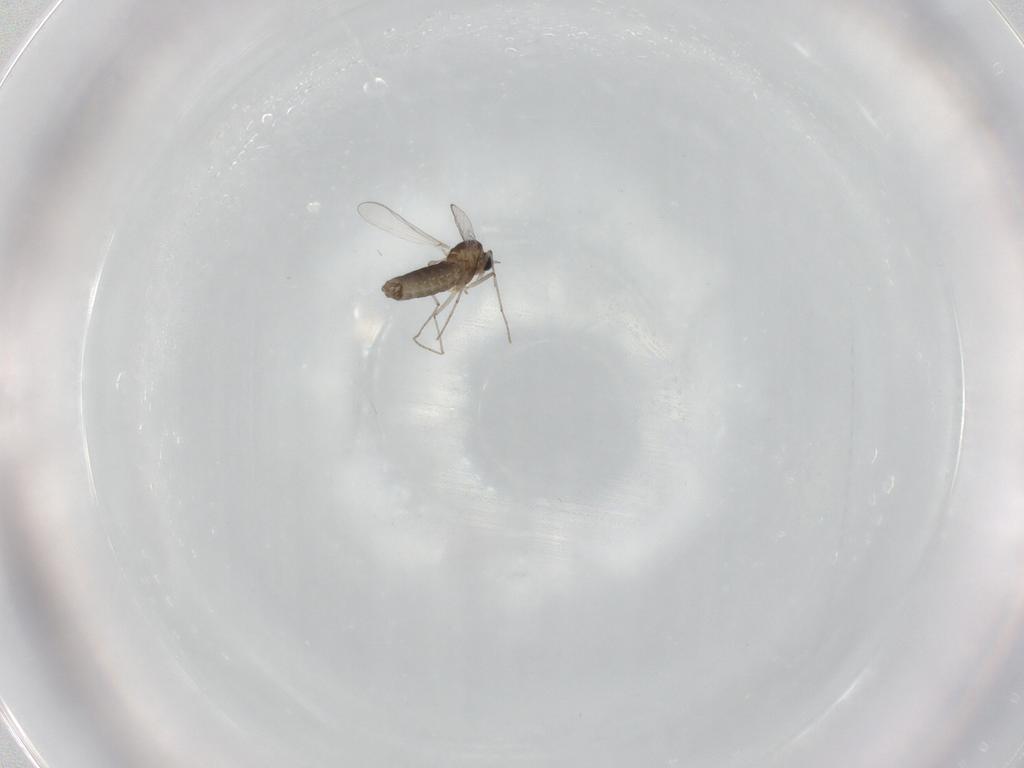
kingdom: Animalia
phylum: Arthropoda
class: Insecta
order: Diptera
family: Chironomidae
